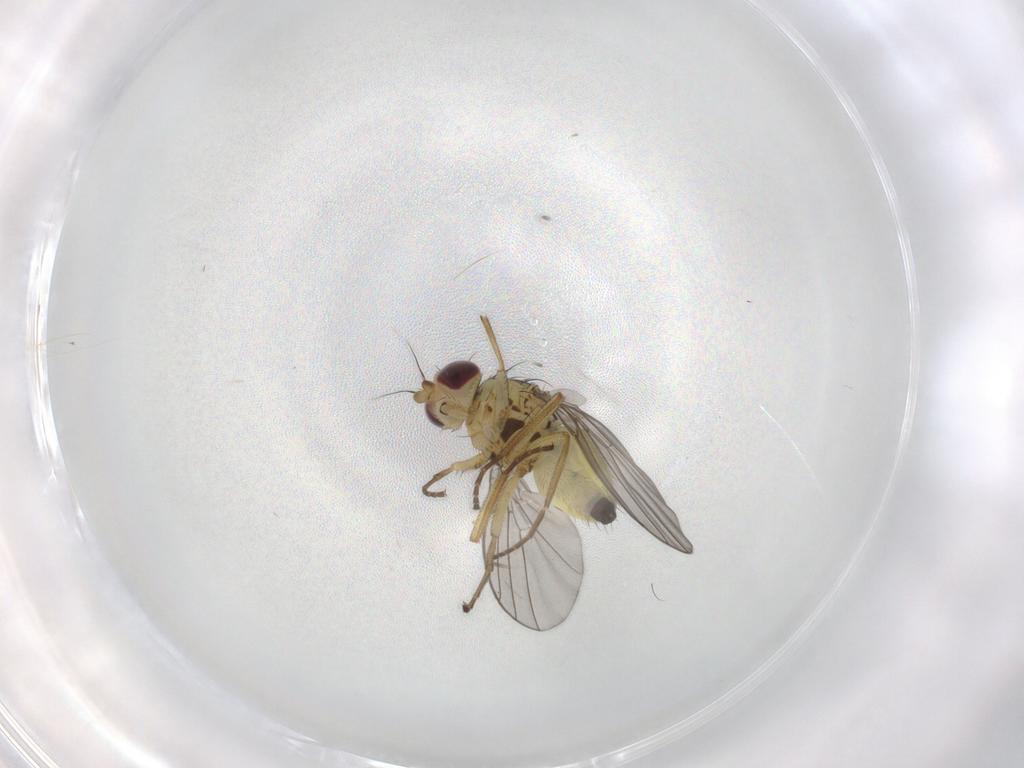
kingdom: Animalia
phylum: Arthropoda
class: Insecta
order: Diptera
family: Agromyzidae
